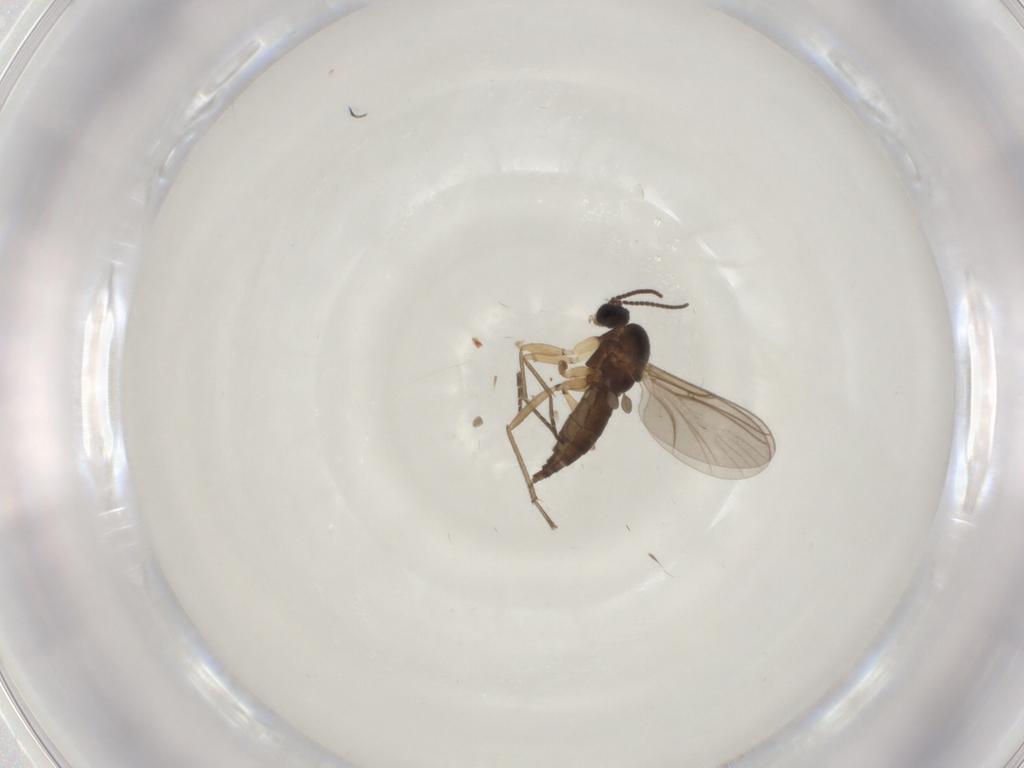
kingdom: Animalia
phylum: Arthropoda
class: Insecta
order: Diptera
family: Sciaridae
